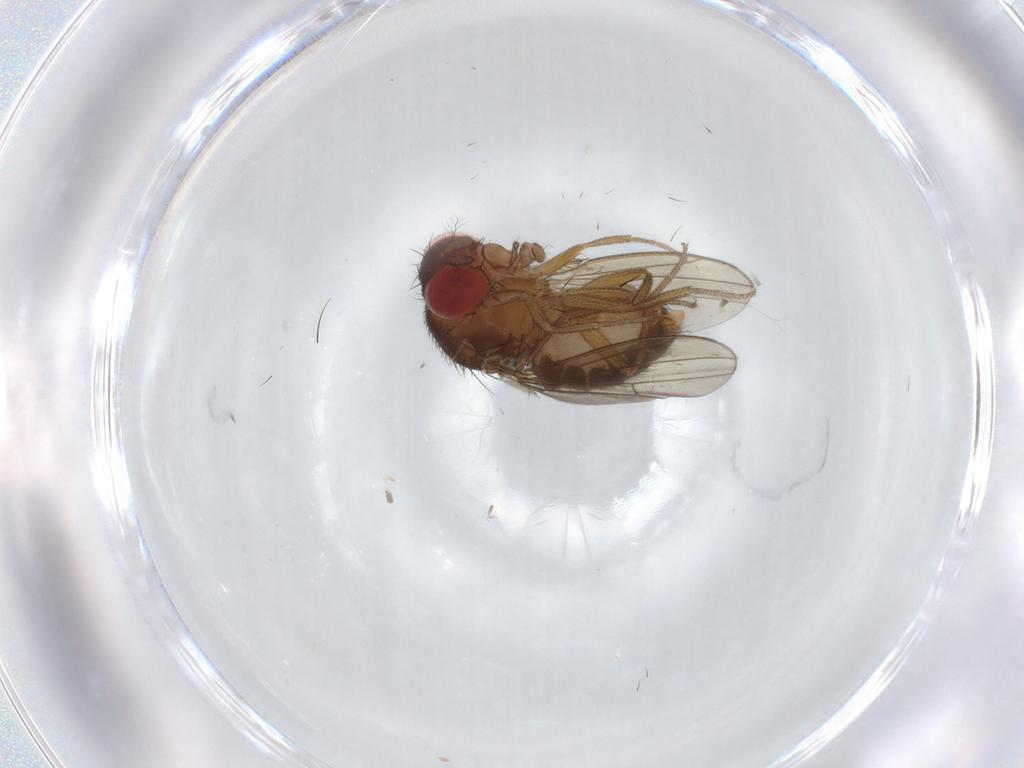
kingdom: Animalia
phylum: Arthropoda
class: Insecta
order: Diptera
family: Drosophilidae
